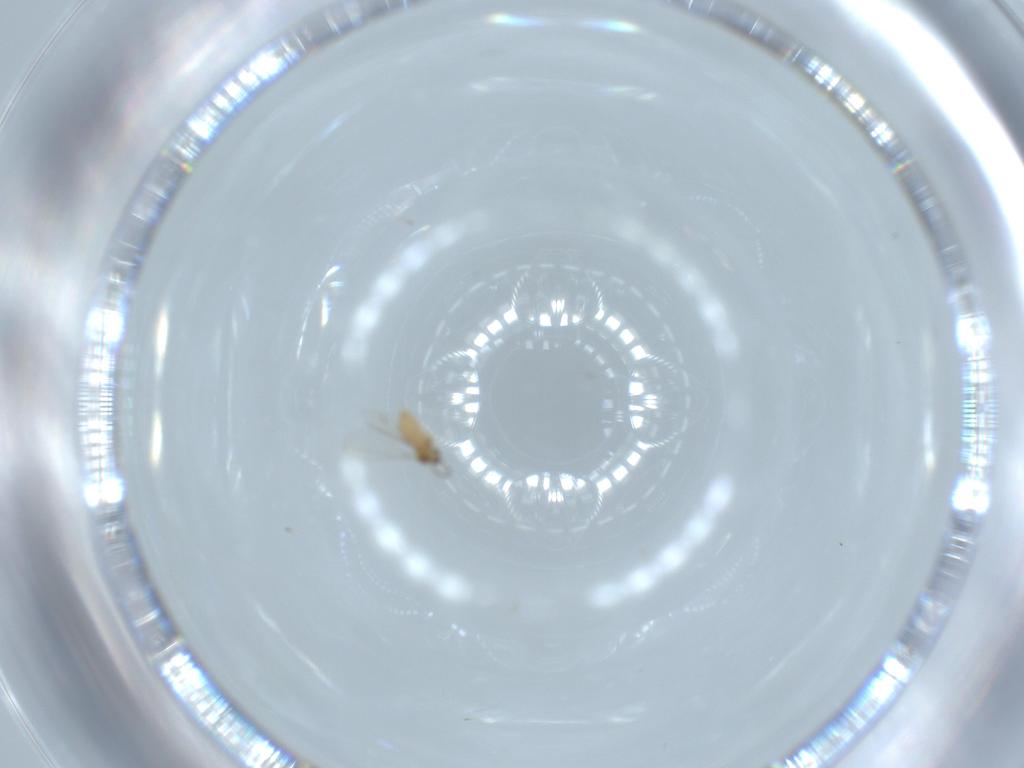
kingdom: Animalia
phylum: Arthropoda
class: Insecta
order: Diptera
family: Cecidomyiidae
